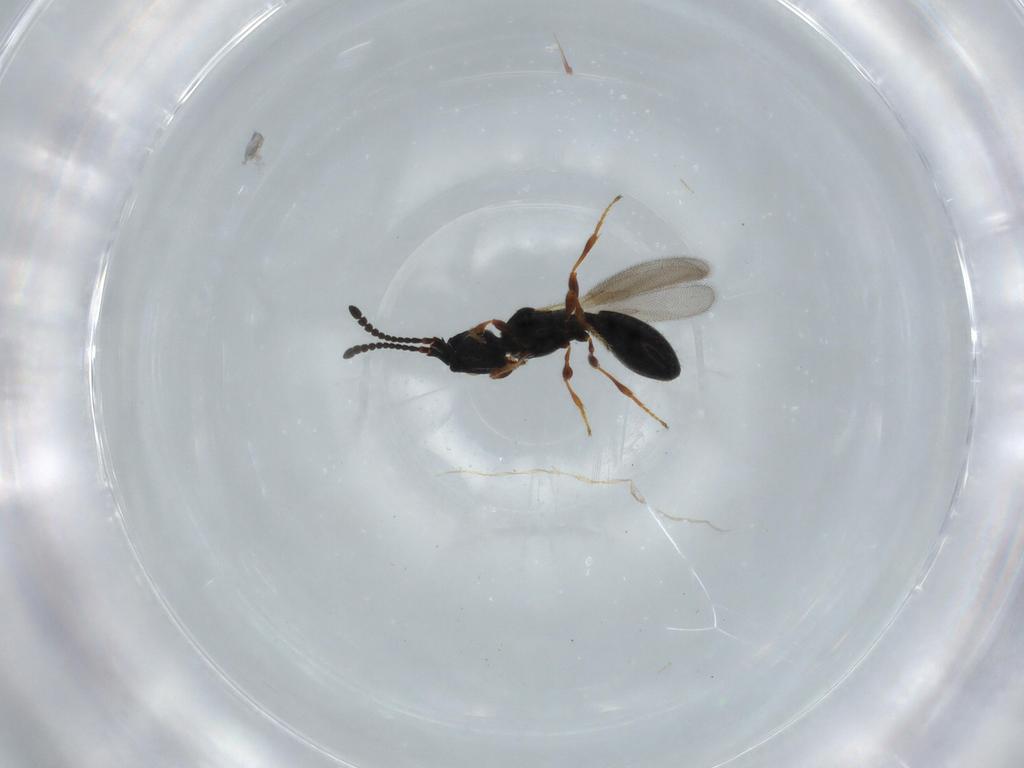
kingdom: Animalia
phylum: Arthropoda
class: Insecta
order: Hymenoptera
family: Diapriidae
